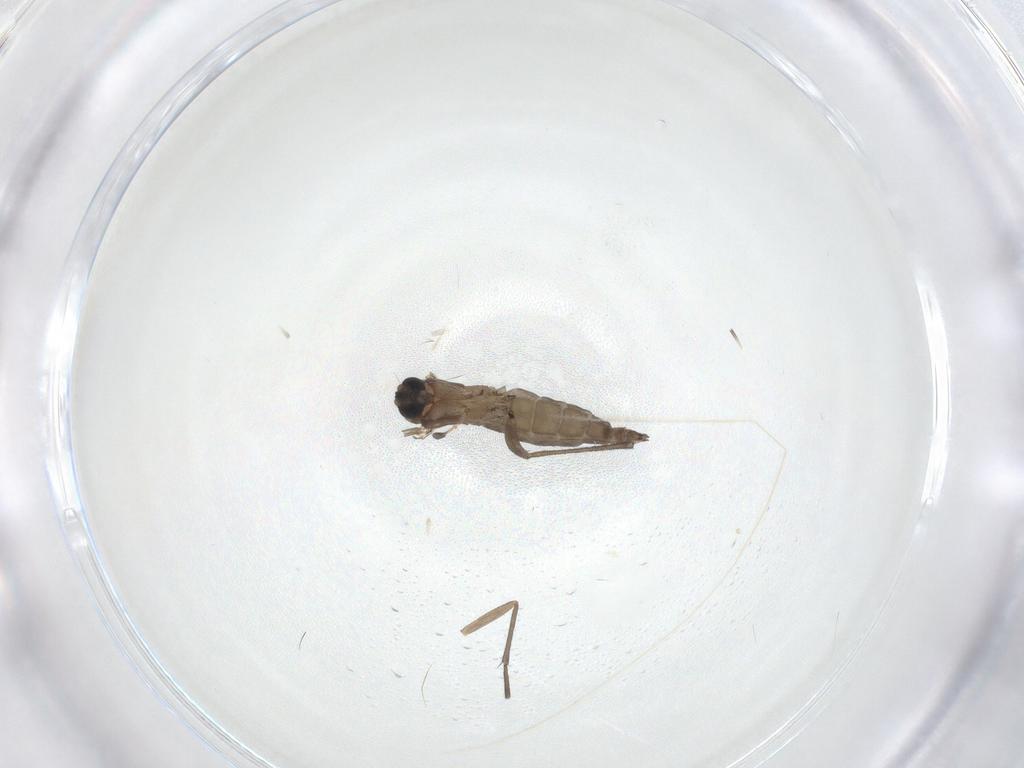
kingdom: Animalia
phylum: Arthropoda
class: Insecta
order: Diptera
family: Sciaridae
